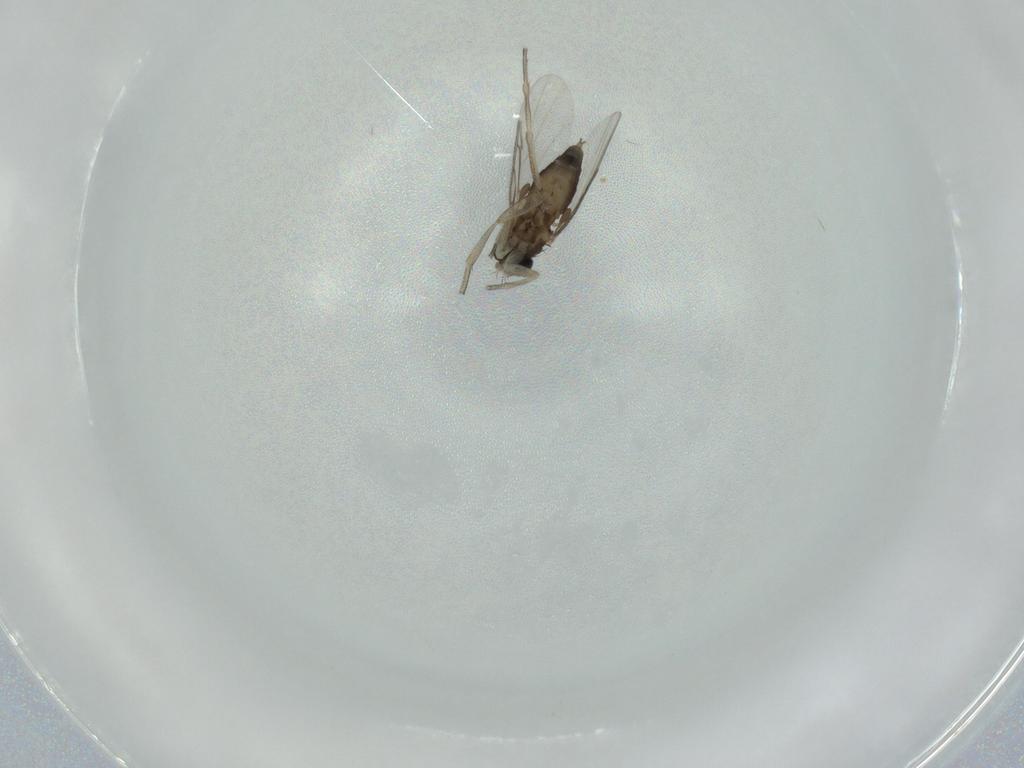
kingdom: Animalia
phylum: Arthropoda
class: Insecta
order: Diptera
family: Phoridae
